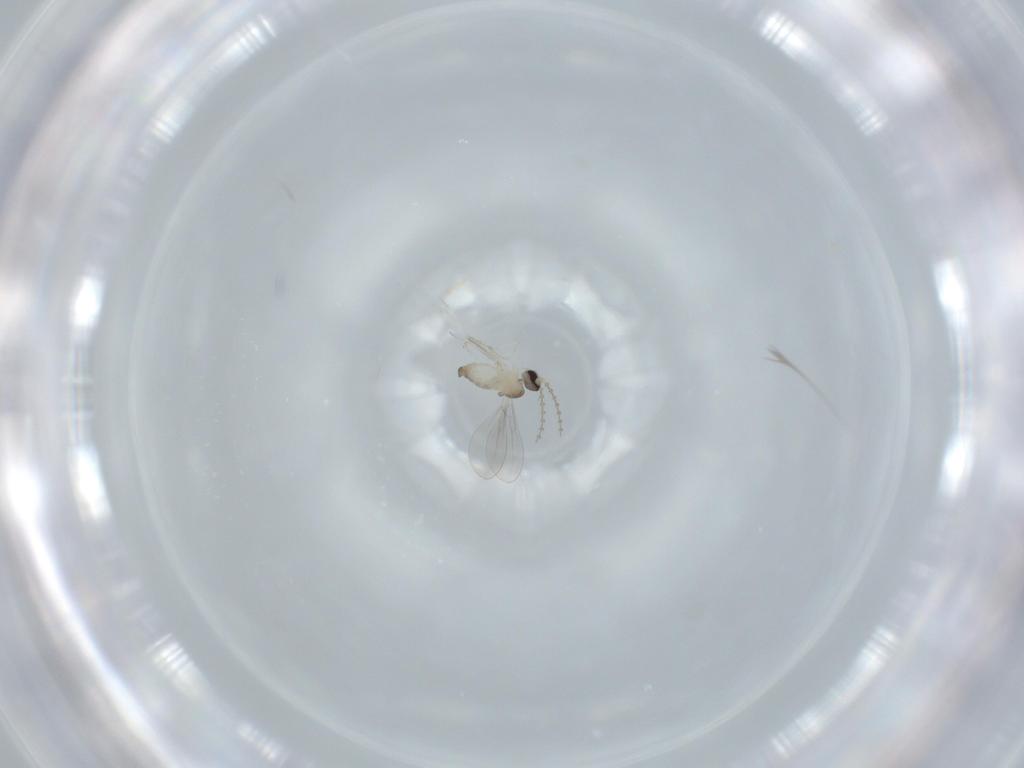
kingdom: Animalia
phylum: Arthropoda
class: Insecta
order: Diptera
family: Cecidomyiidae
